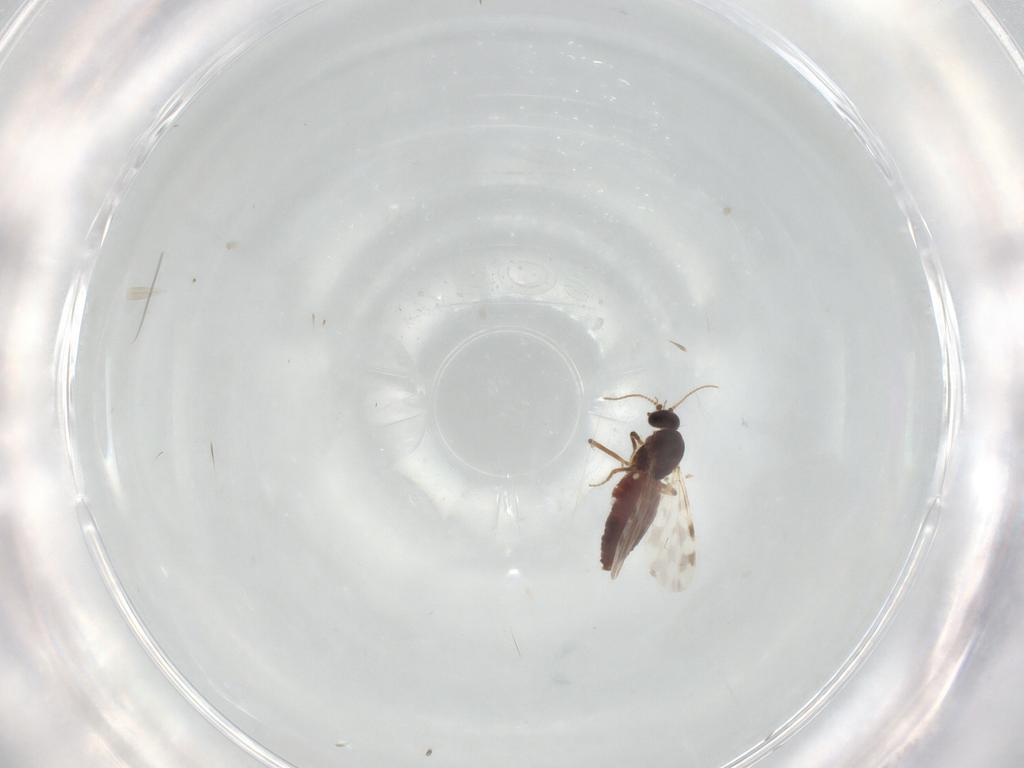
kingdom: Animalia
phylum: Arthropoda
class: Insecta
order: Diptera
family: Ceratopogonidae
